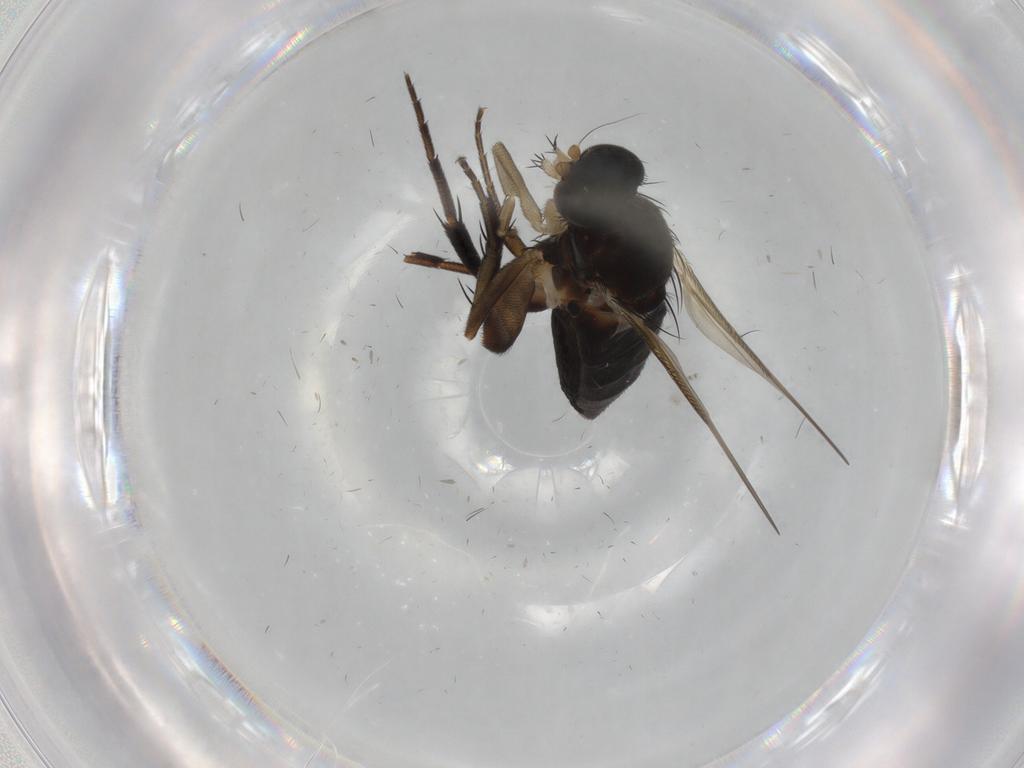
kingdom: Animalia
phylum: Arthropoda
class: Insecta
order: Diptera
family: Phoridae
